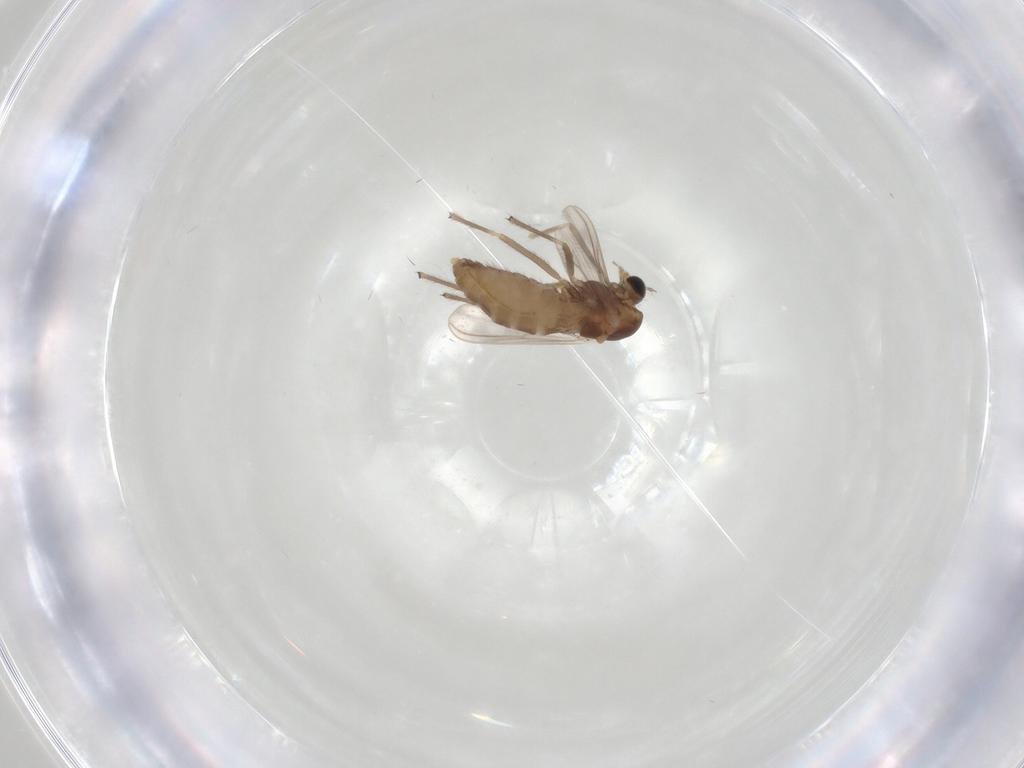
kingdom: Animalia
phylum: Arthropoda
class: Insecta
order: Diptera
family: Chironomidae
